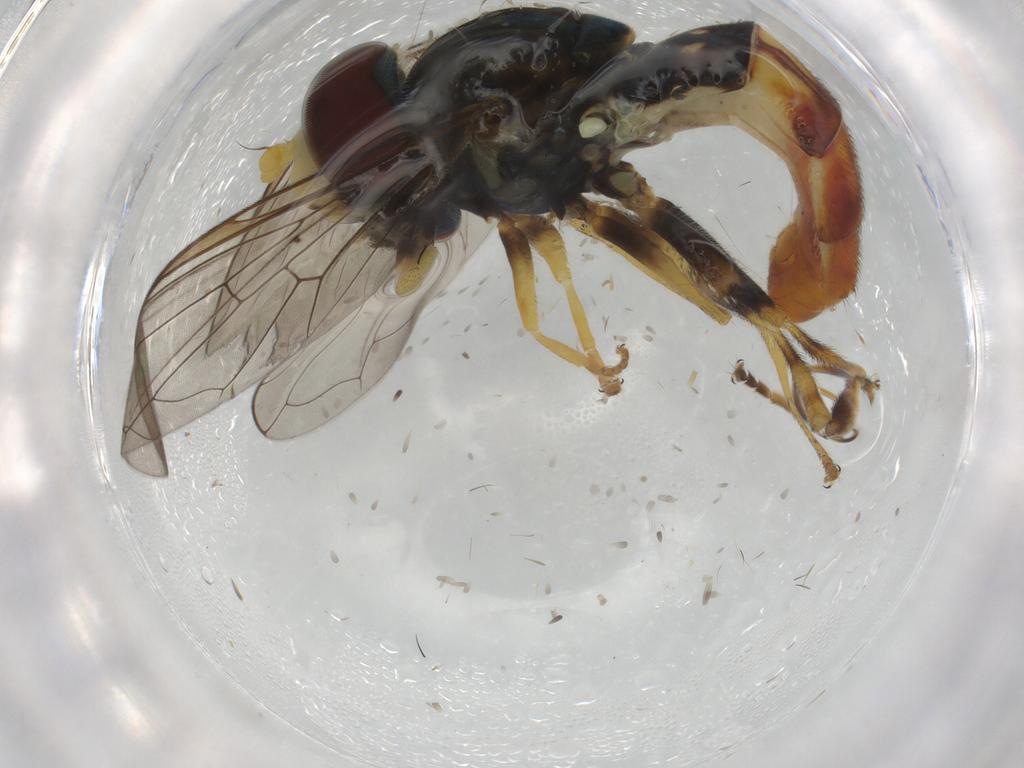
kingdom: Animalia
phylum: Arthropoda
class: Insecta
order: Diptera
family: Syrphidae
